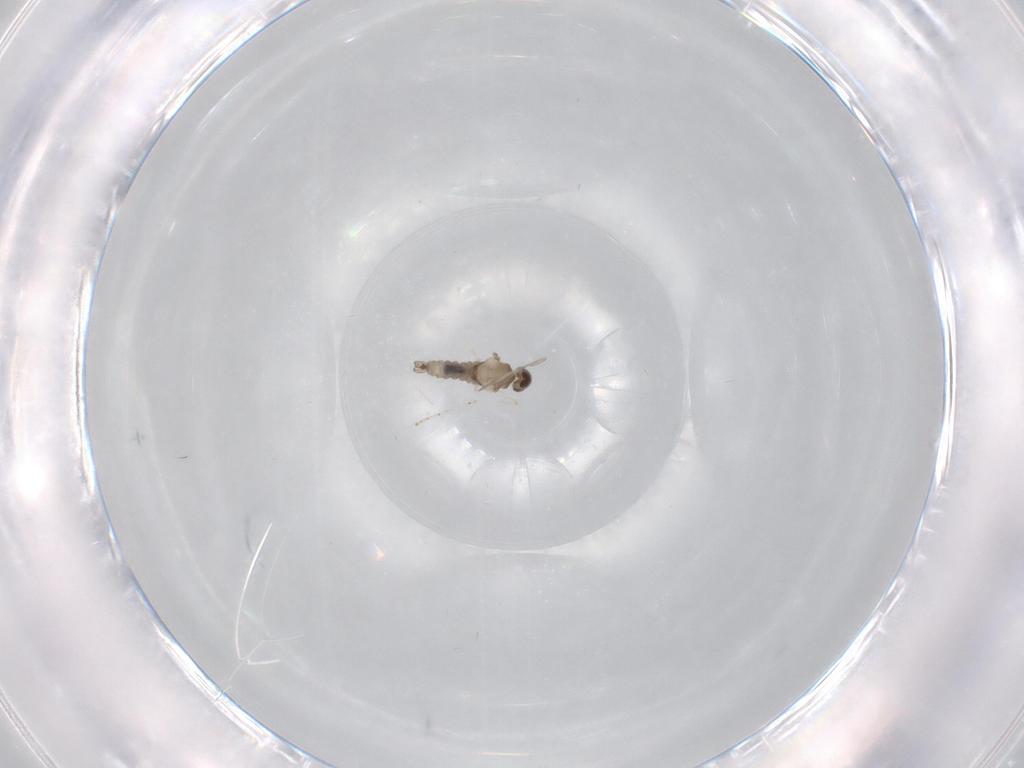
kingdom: Animalia
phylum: Arthropoda
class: Insecta
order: Diptera
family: Cecidomyiidae
